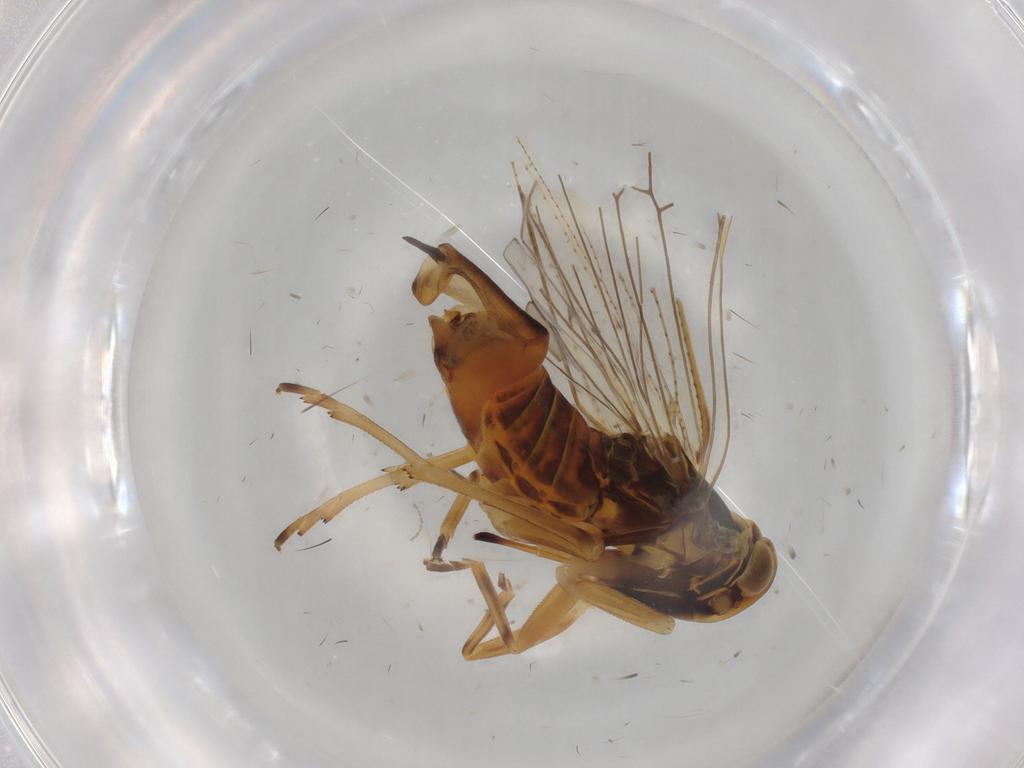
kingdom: Animalia
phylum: Arthropoda
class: Insecta
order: Hemiptera
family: Cixiidae
